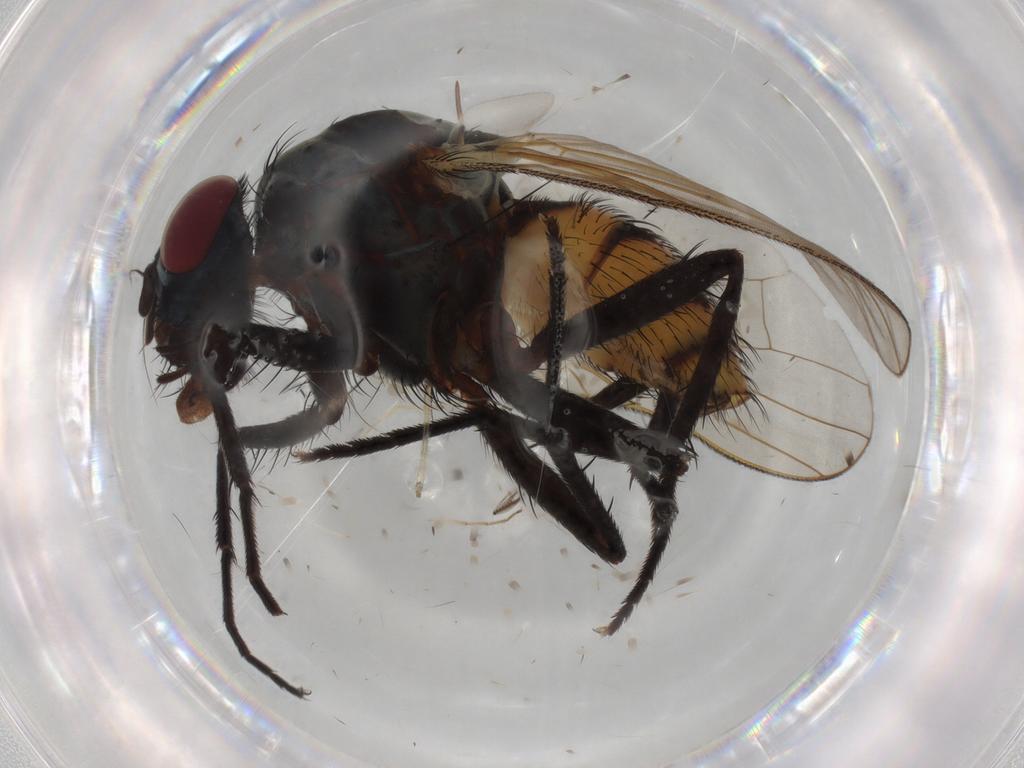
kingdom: Animalia
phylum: Arthropoda
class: Insecta
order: Diptera
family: Anthomyiidae
